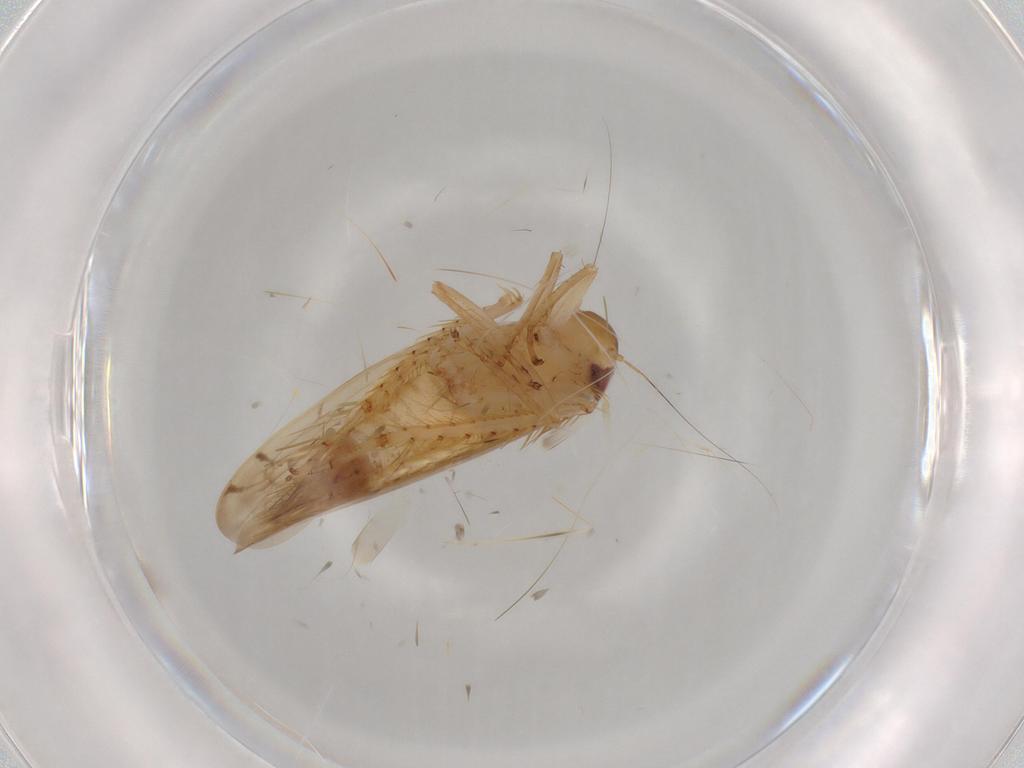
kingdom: Animalia
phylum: Arthropoda
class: Insecta
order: Hemiptera
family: Cicadellidae
